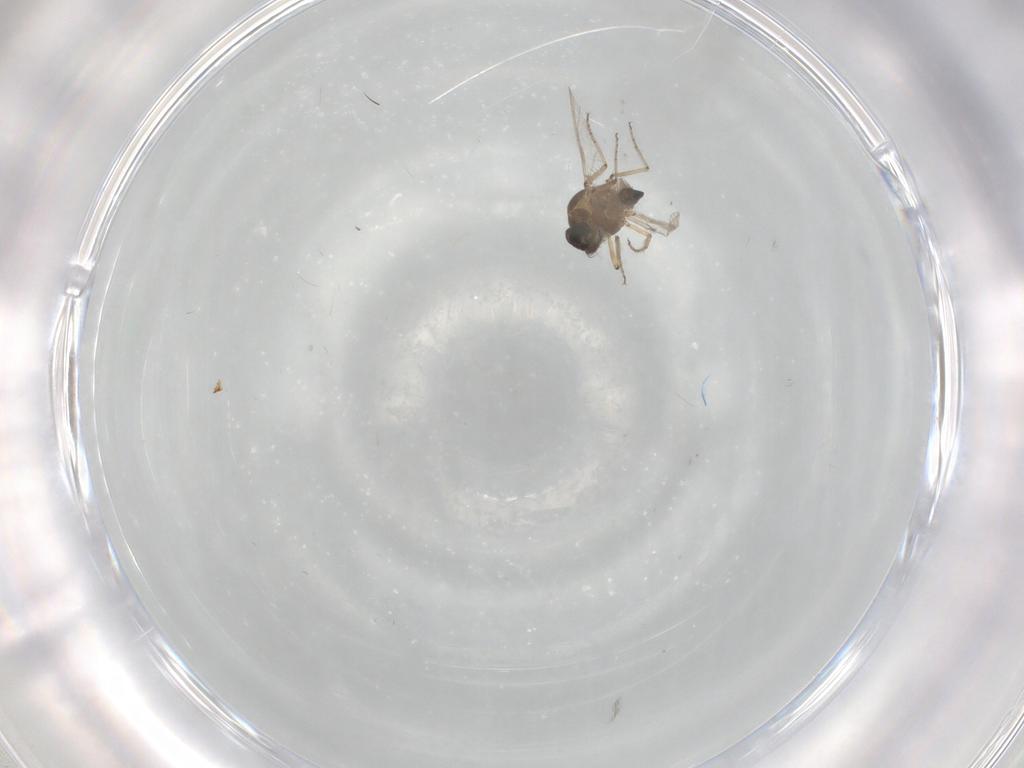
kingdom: Animalia
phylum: Arthropoda
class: Insecta
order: Diptera
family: Ceratopogonidae
